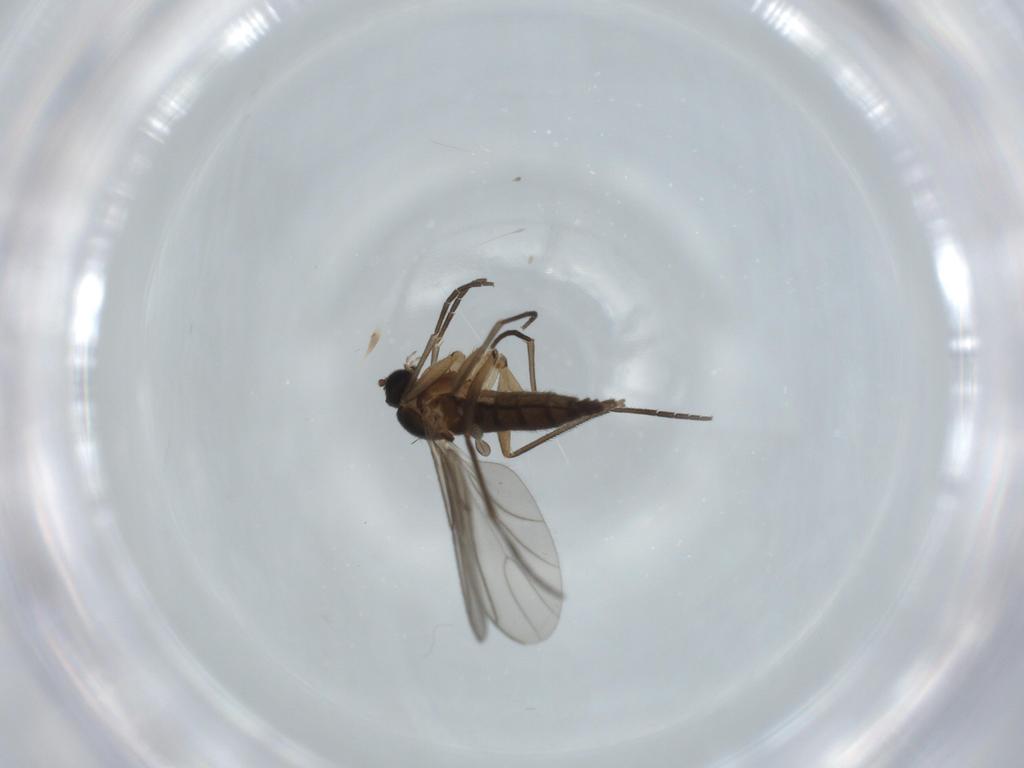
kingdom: Animalia
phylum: Arthropoda
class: Insecta
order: Diptera
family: Sciaridae
